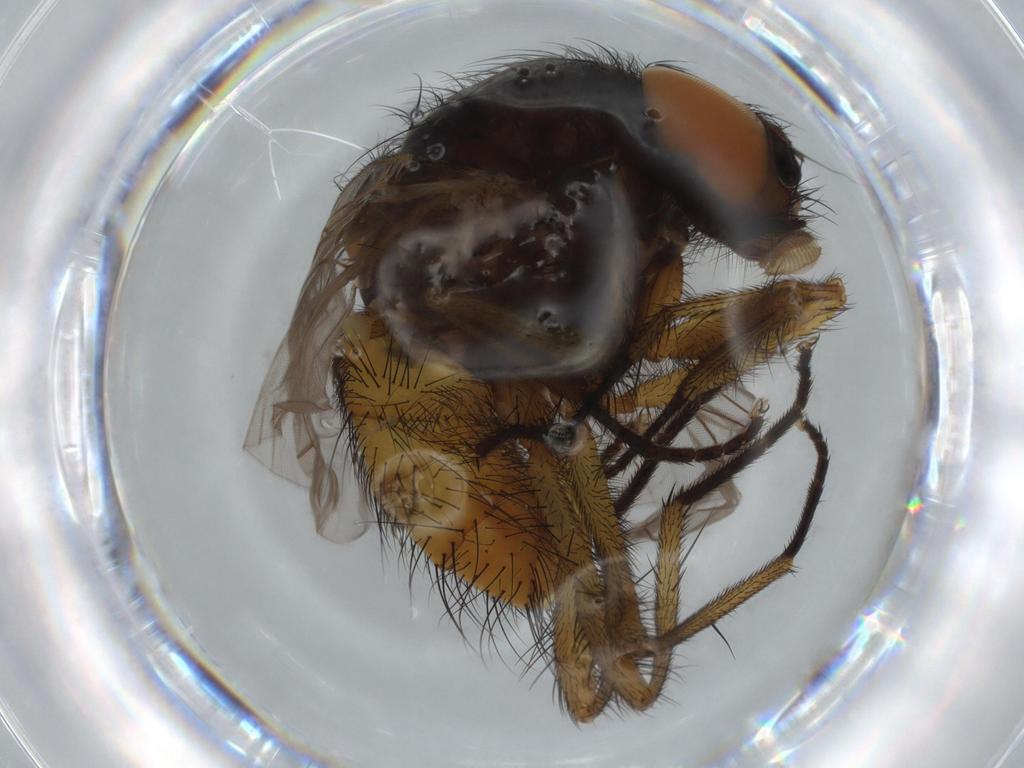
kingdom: Animalia
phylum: Arthropoda
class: Insecta
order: Diptera
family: Muscidae
